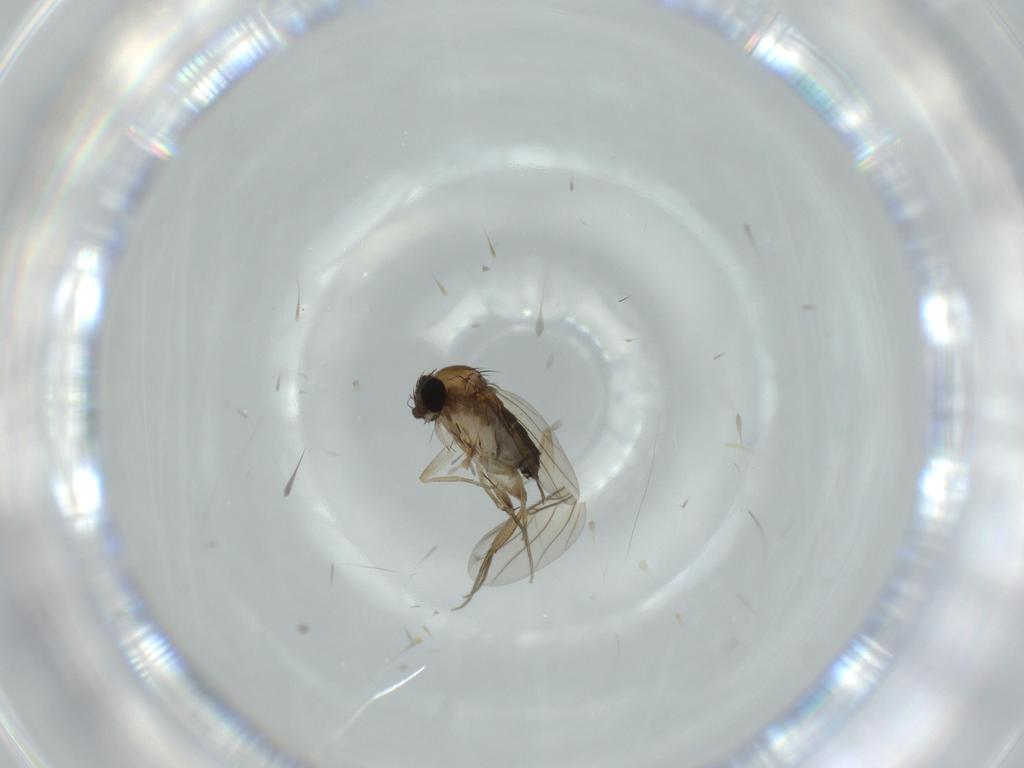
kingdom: Animalia
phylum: Arthropoda
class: Insecta
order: Diptera
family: Phoridae
